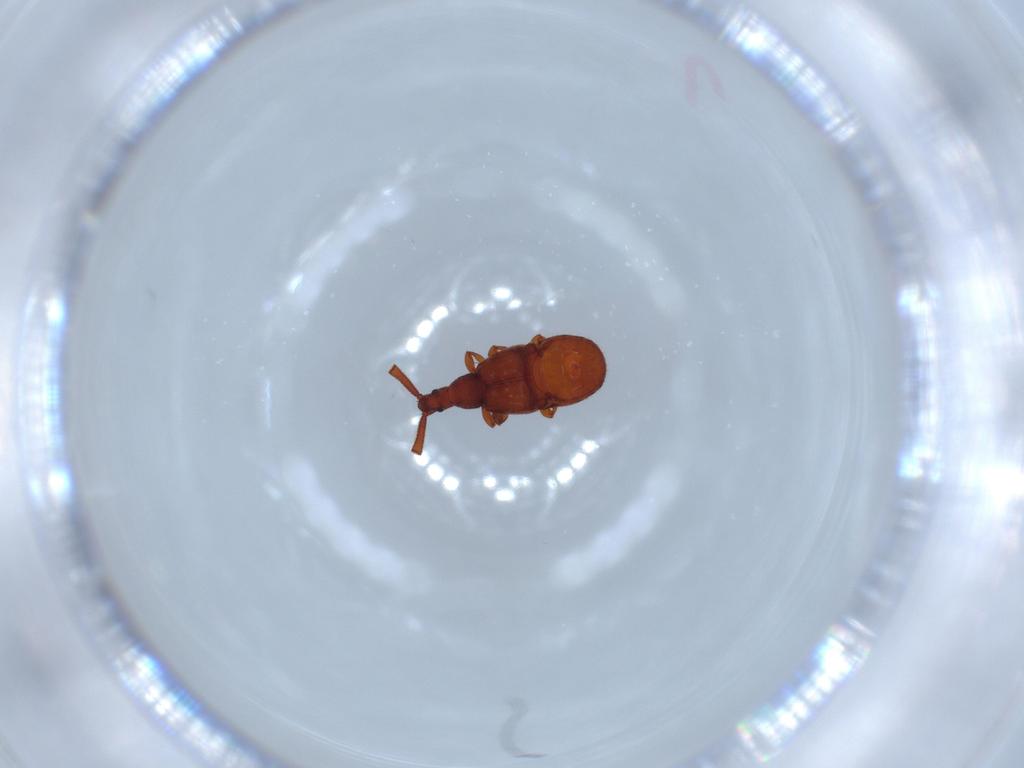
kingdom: Animalia
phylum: Arthropoda
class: Insecta
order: Coleoptera
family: Staphylinidae
